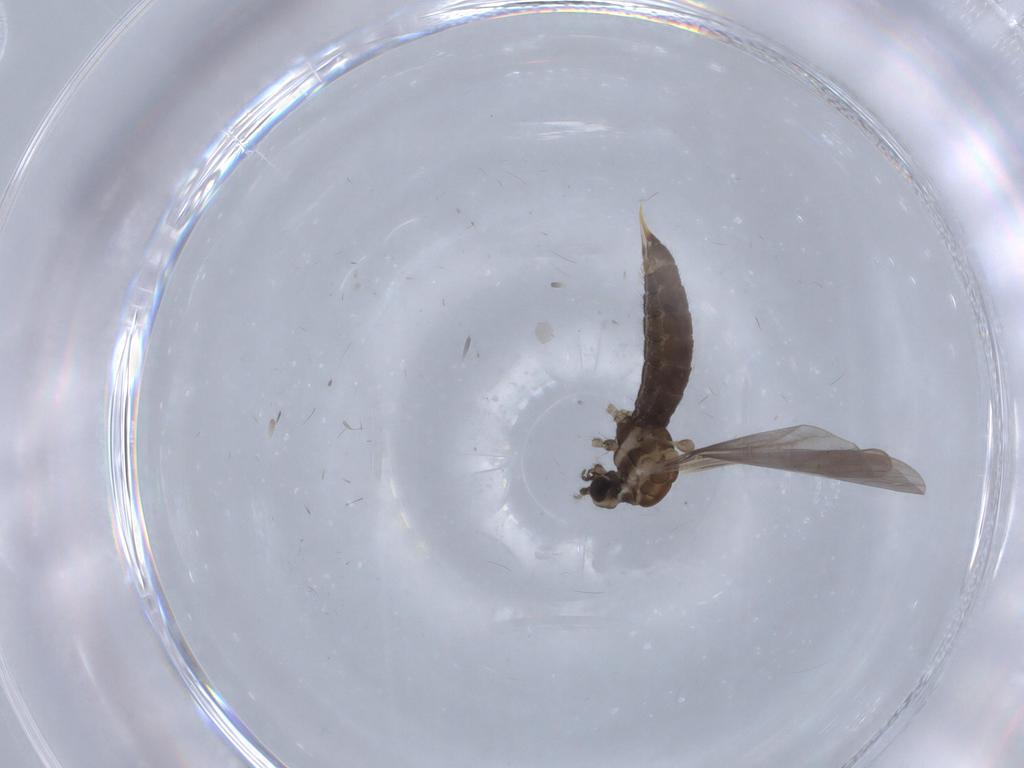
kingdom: Animalia
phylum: Arthropoda
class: Insecta
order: Diptera
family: Limoniidae
